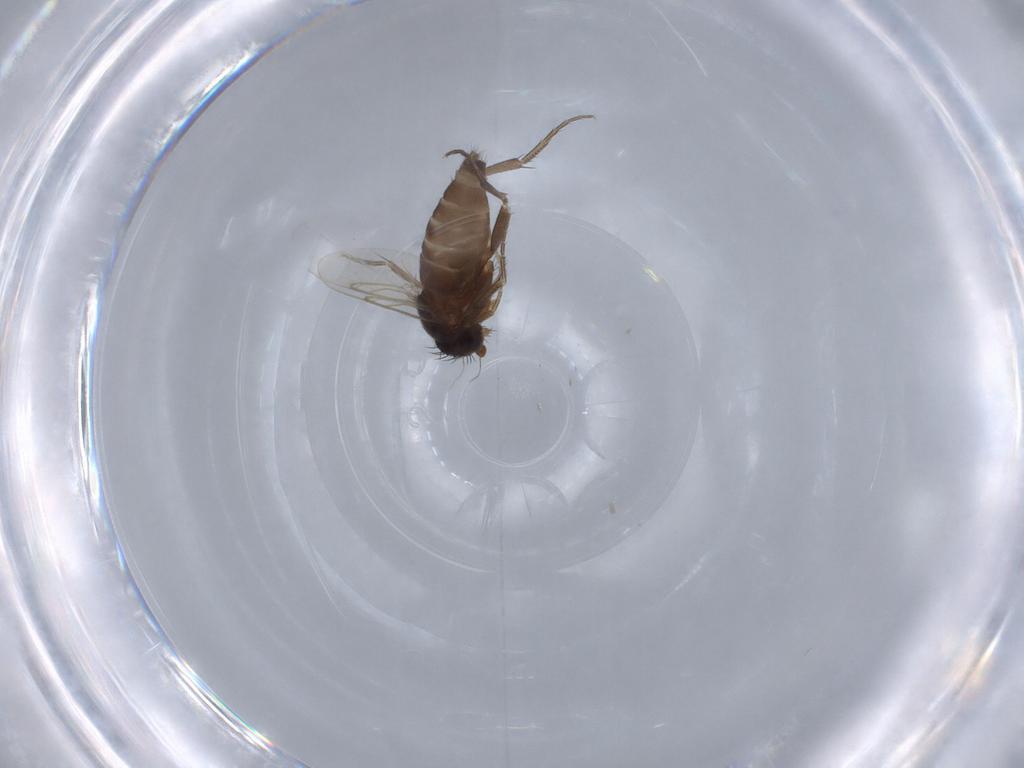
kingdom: Animalia
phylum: Arthropoda
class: Insecta
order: Diptera
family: Phoridae
